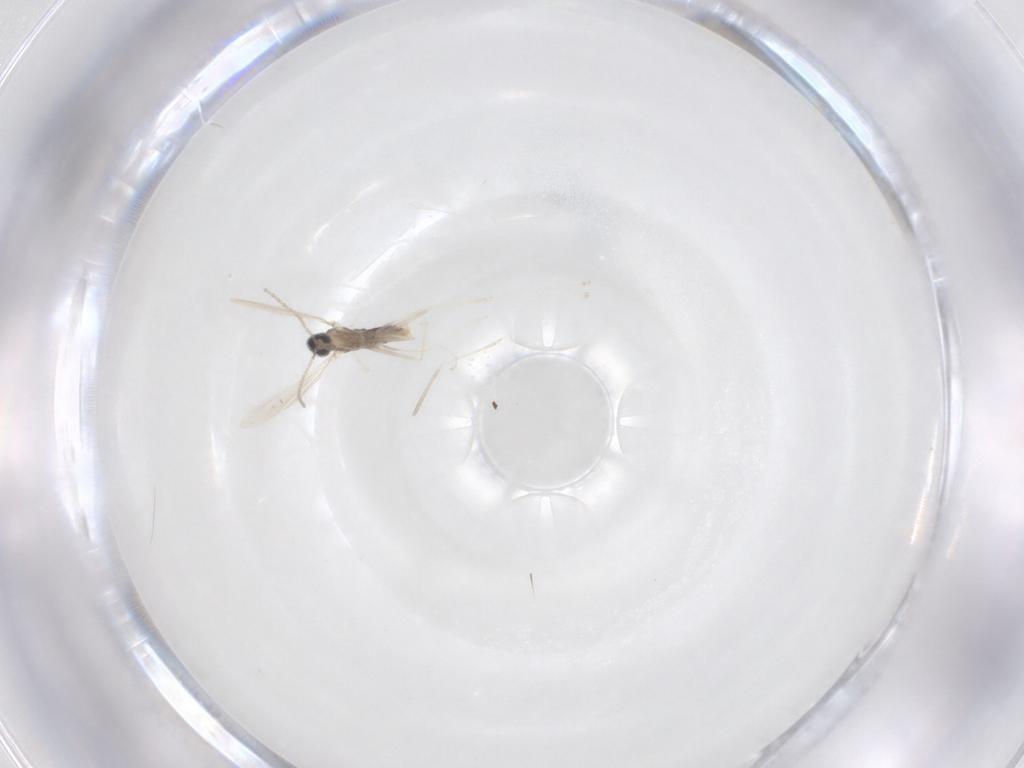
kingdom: Animalia
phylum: Arthropoda
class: Insecta
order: Diptera
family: Cecidomyiidae
